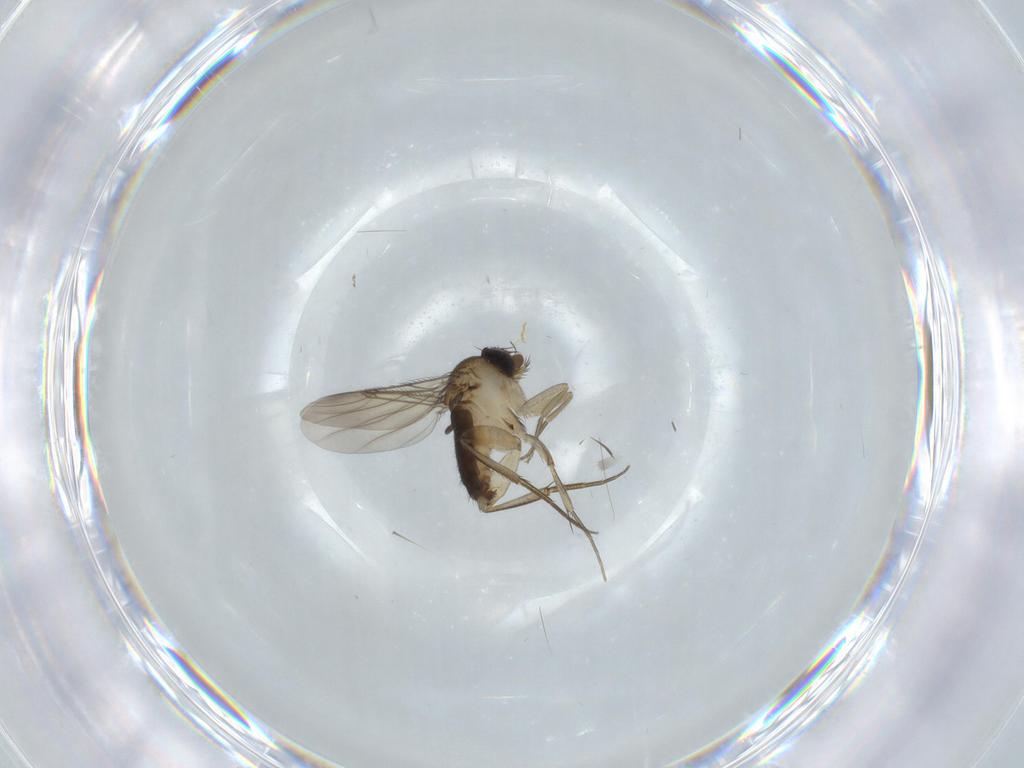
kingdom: Animalia
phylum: Arthropoda
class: Insecta
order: Diptera
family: Phoridae
